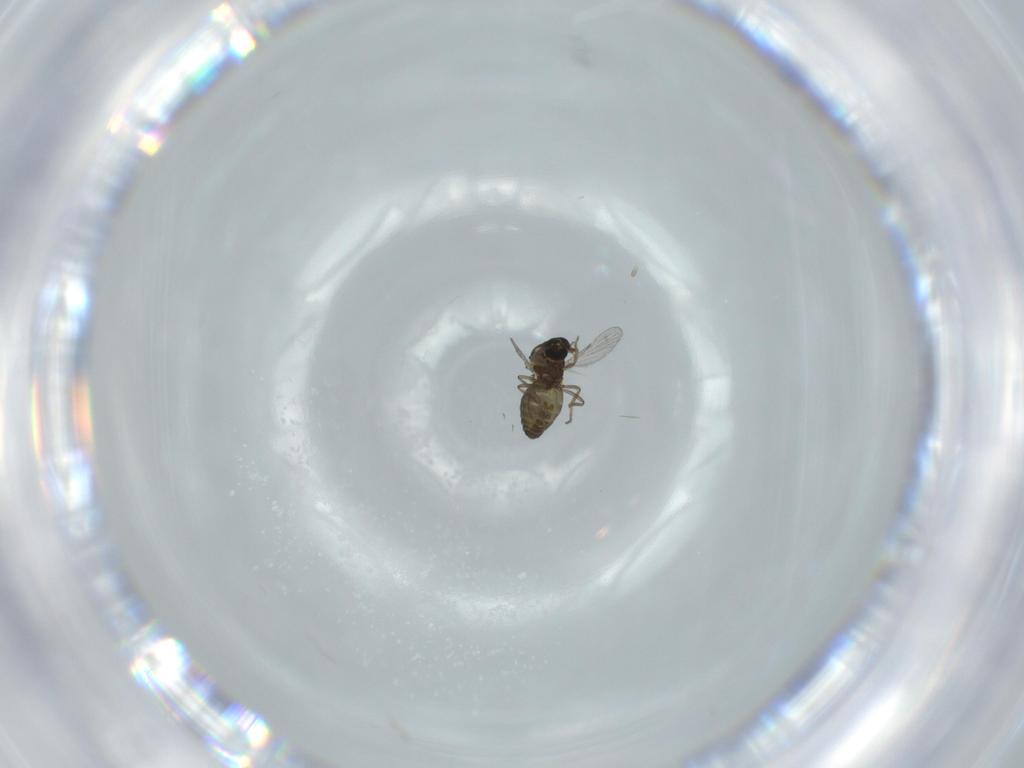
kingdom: Animalia
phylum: Arthropoda
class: Insecta
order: Diptera
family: Ceratopogonidae
